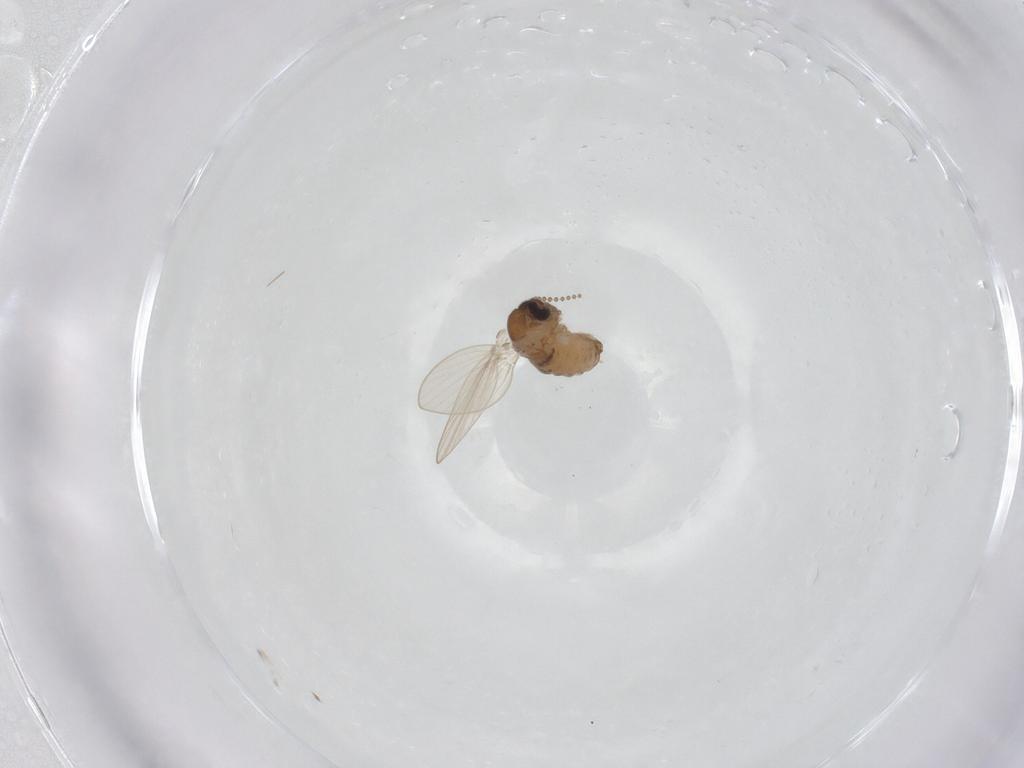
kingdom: Animalia
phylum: Arthropoda
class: Insecta
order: Diptera
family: Psychodidae
